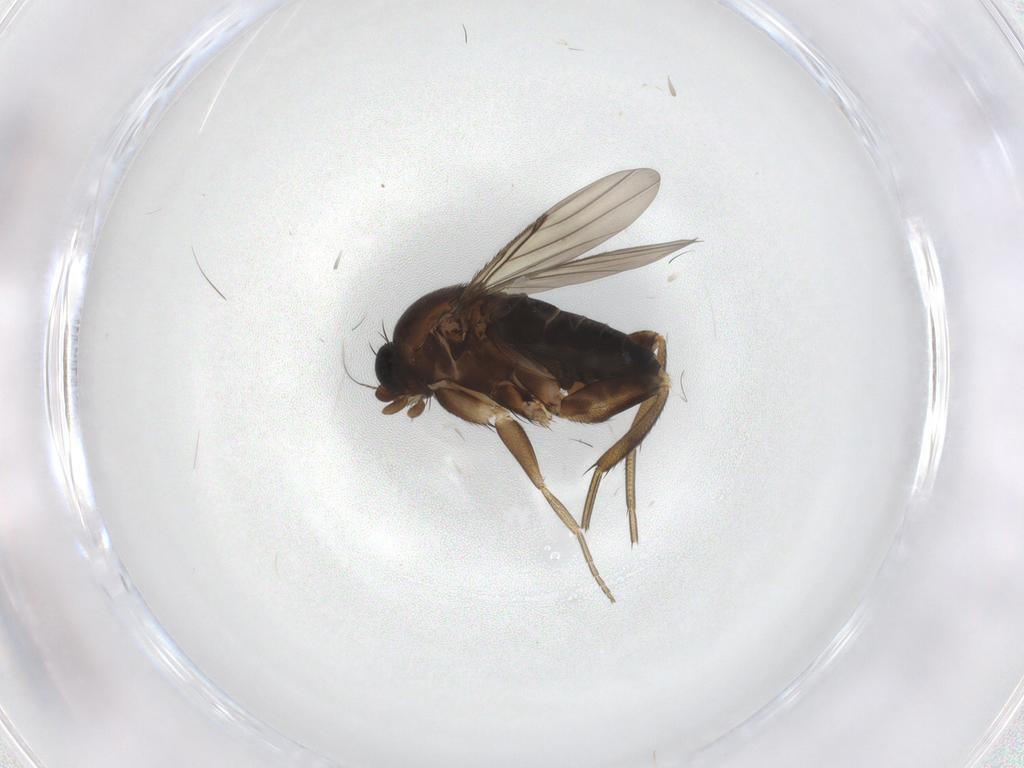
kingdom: Animalia
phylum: Arthropoda
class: Insecta
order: Diptera
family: Phoridae
